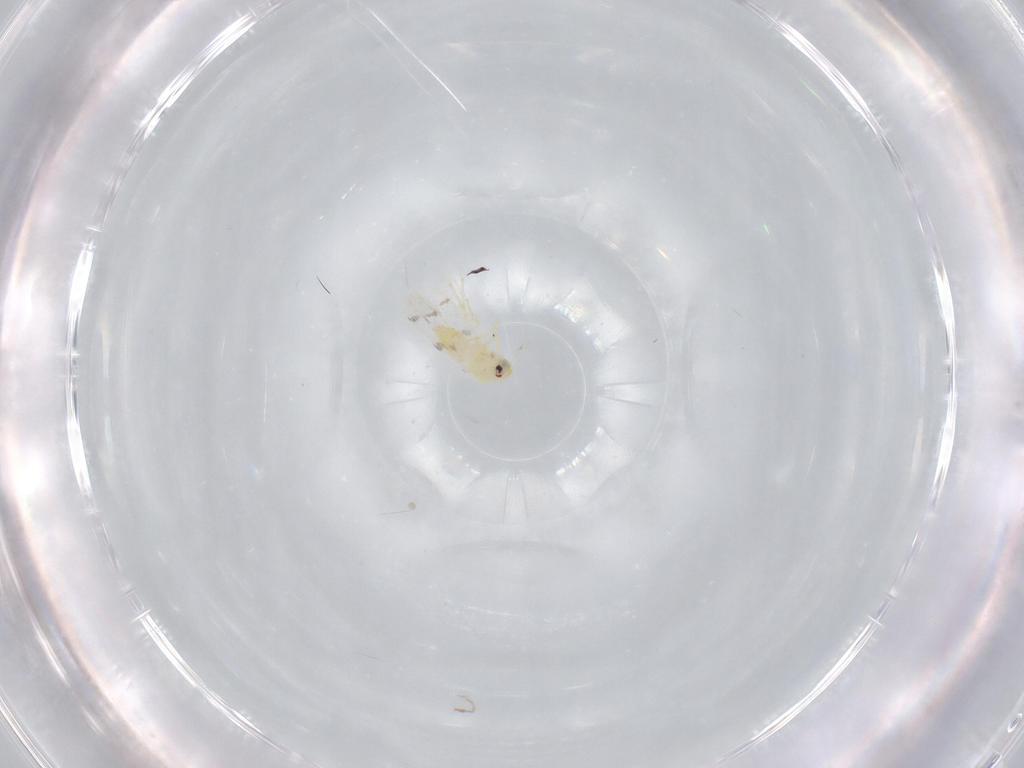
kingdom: Animalia
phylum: Arthropoda
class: Insecta
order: Hemiptera
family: Aleyrodidae
